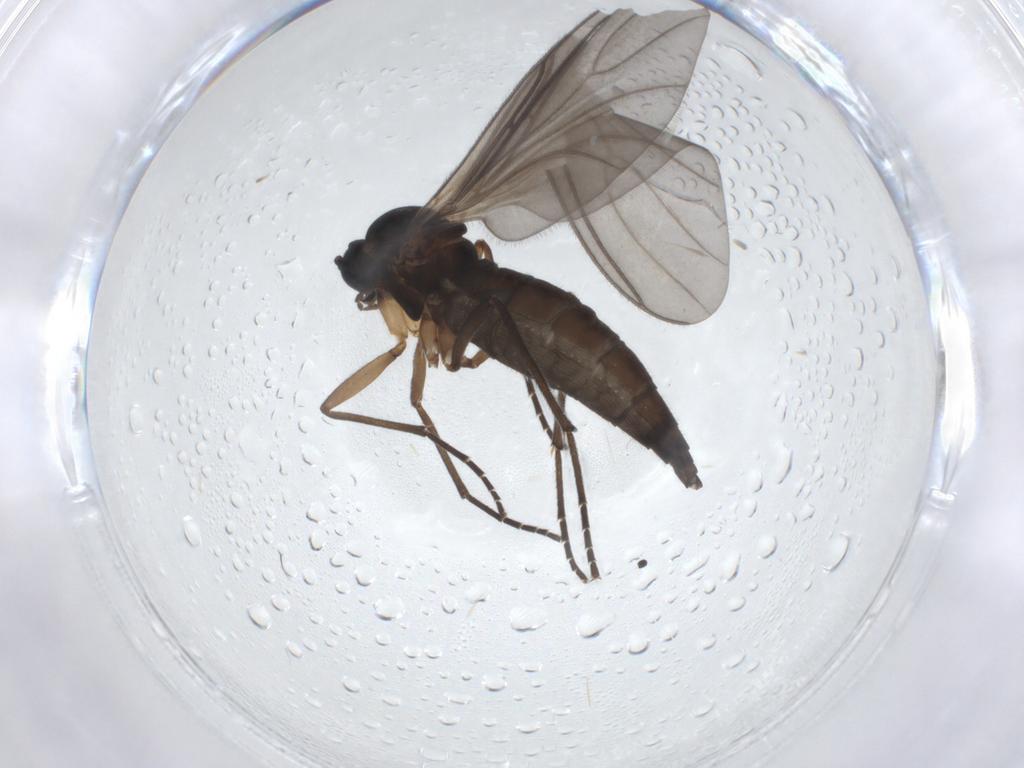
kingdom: Animalia
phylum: Arthropoda
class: Insecta
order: Diptera
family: Sciaridae
